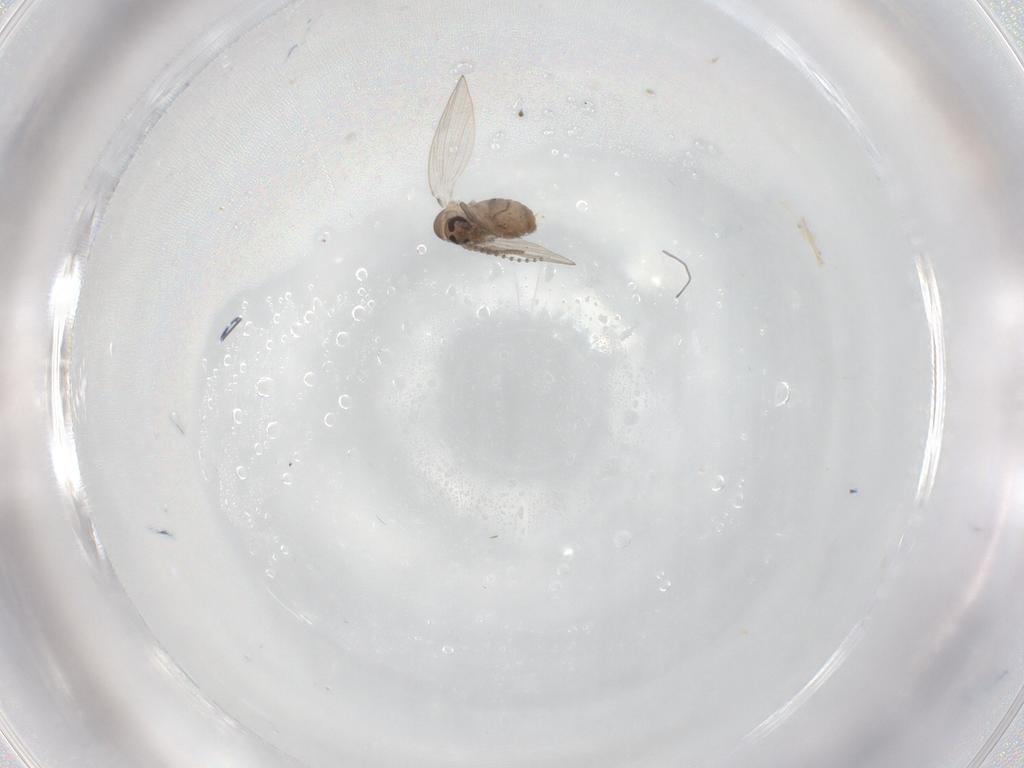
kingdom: Animalia
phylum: Arthropoda
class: Insecta
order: Diptera
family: Psychodidae
